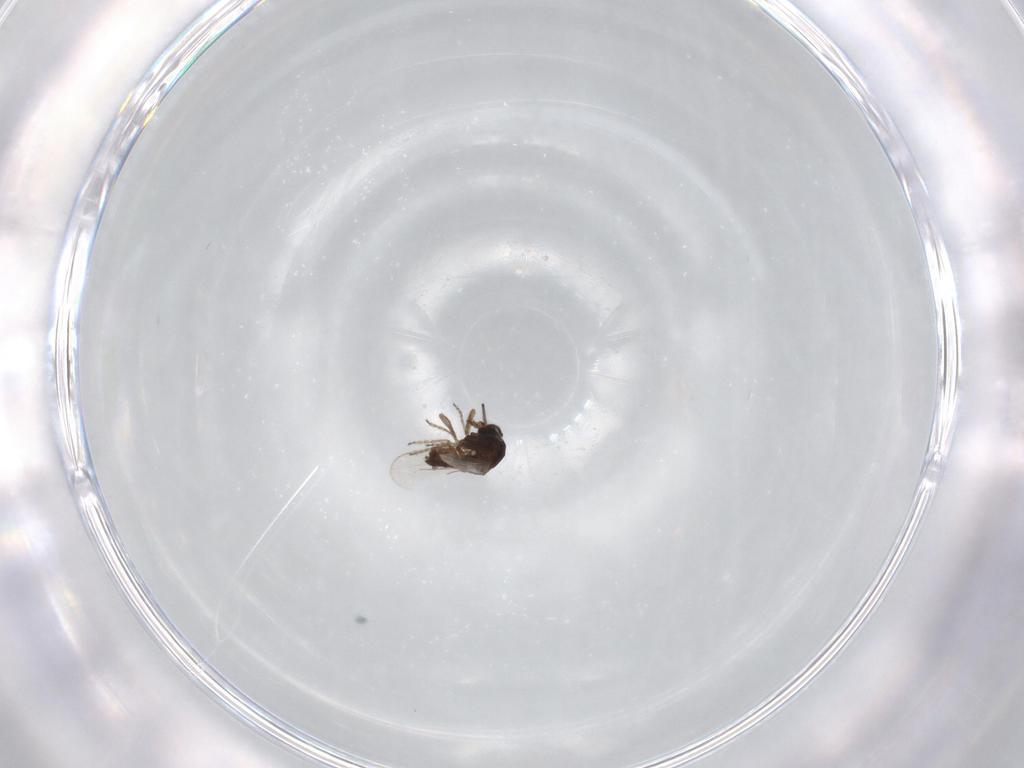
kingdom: Animalia
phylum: Arthropoda
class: Insecta
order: Diptera
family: Ceratopogonidae
